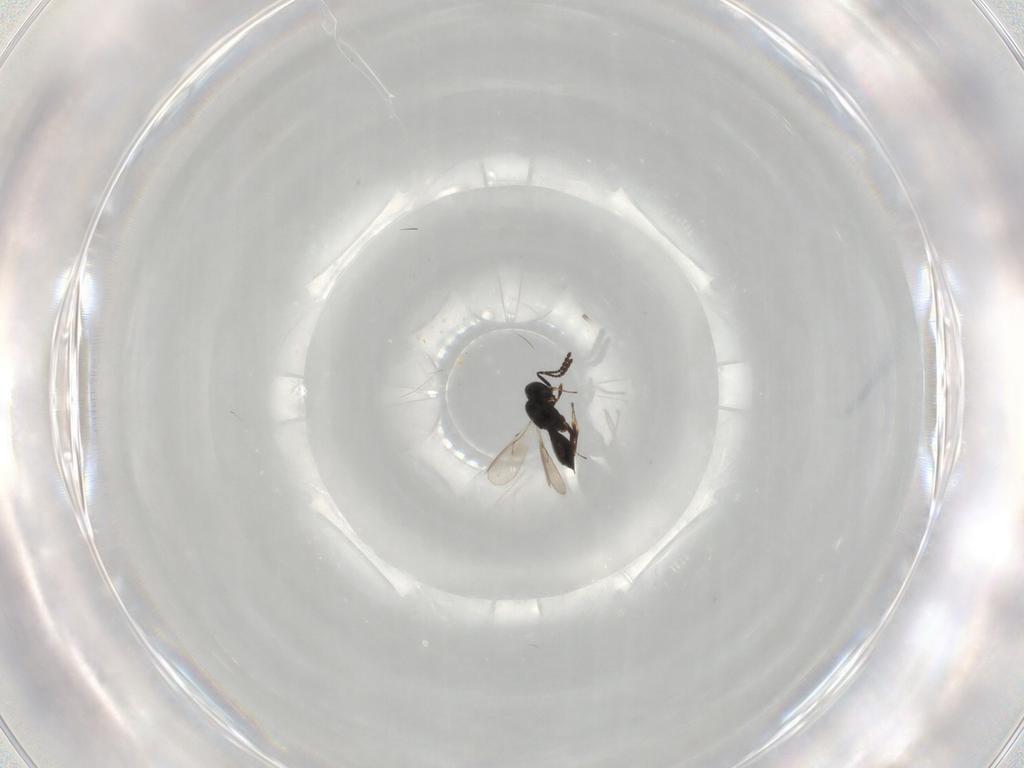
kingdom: Animalia
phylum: Arthropoda
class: Insecta
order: Hymenoptera
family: Scelionidae
